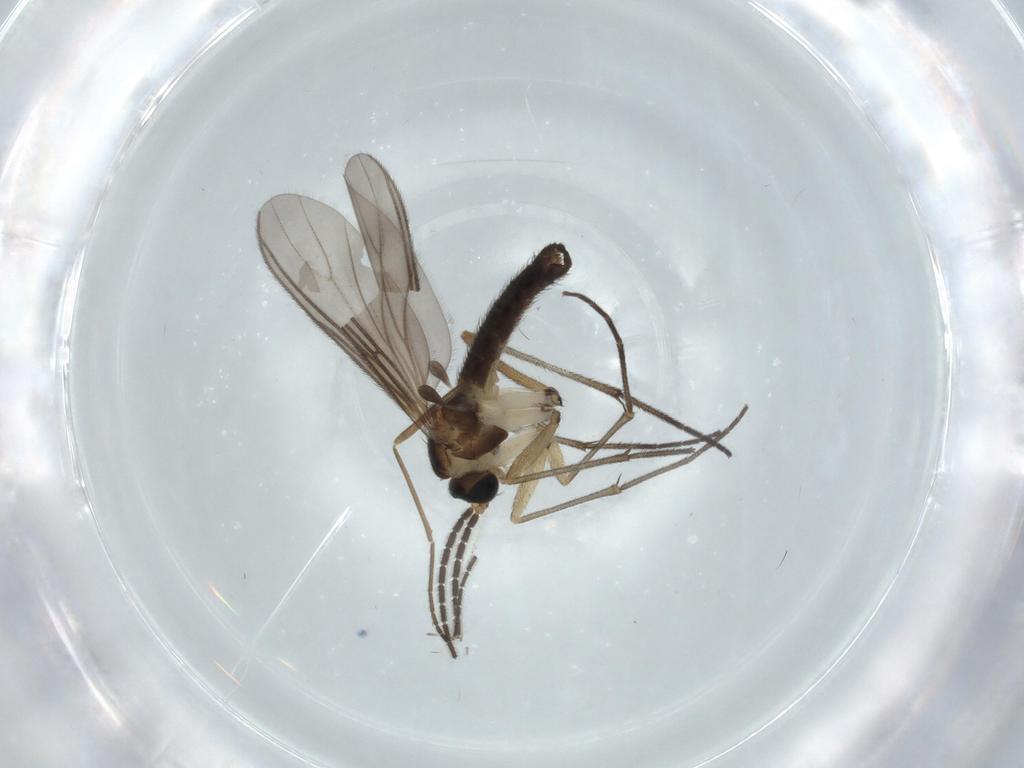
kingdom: Animalia
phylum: Arthropoda
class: Insecta
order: Diptera
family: Sciaridae
